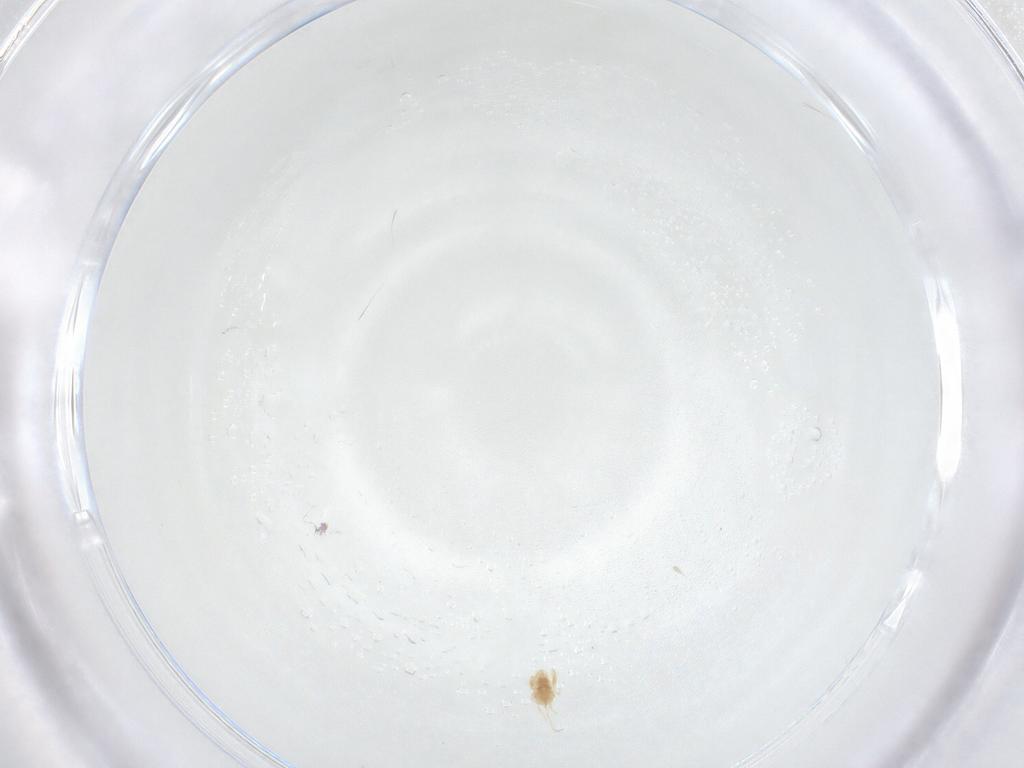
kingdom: Animalia
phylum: Arthropoda
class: Arachnida
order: Trombidiformes
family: Eupodidae
